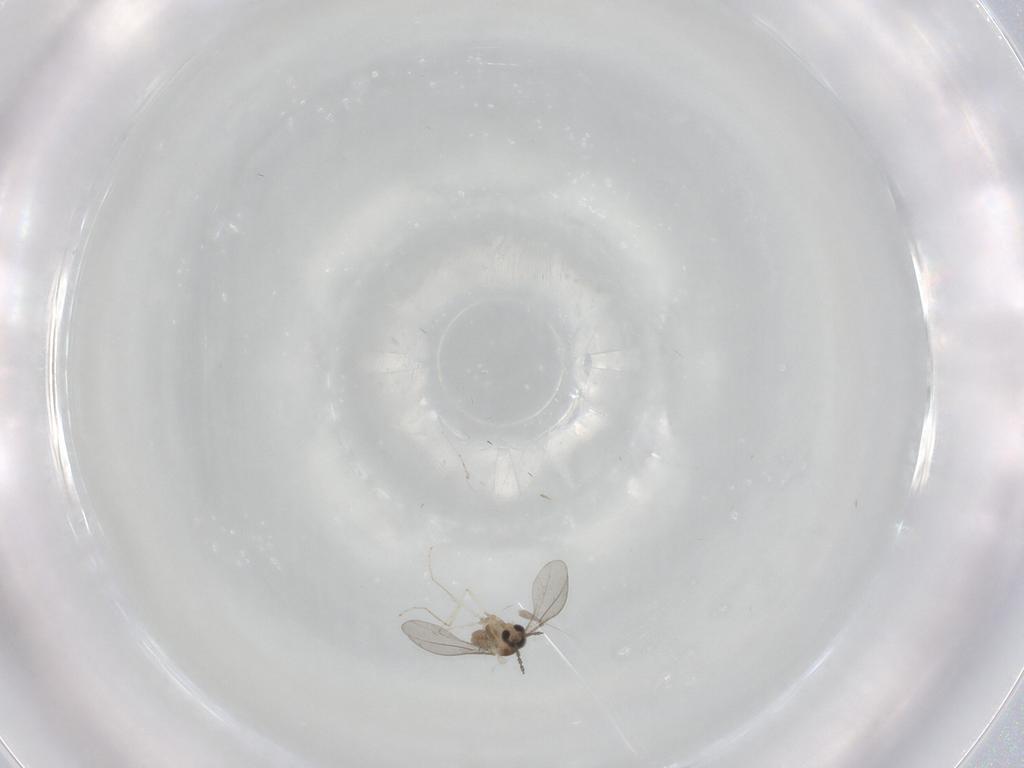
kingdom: Animalia
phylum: Arthropoda
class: Insecta
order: Diptera
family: Cecidomyiidae
